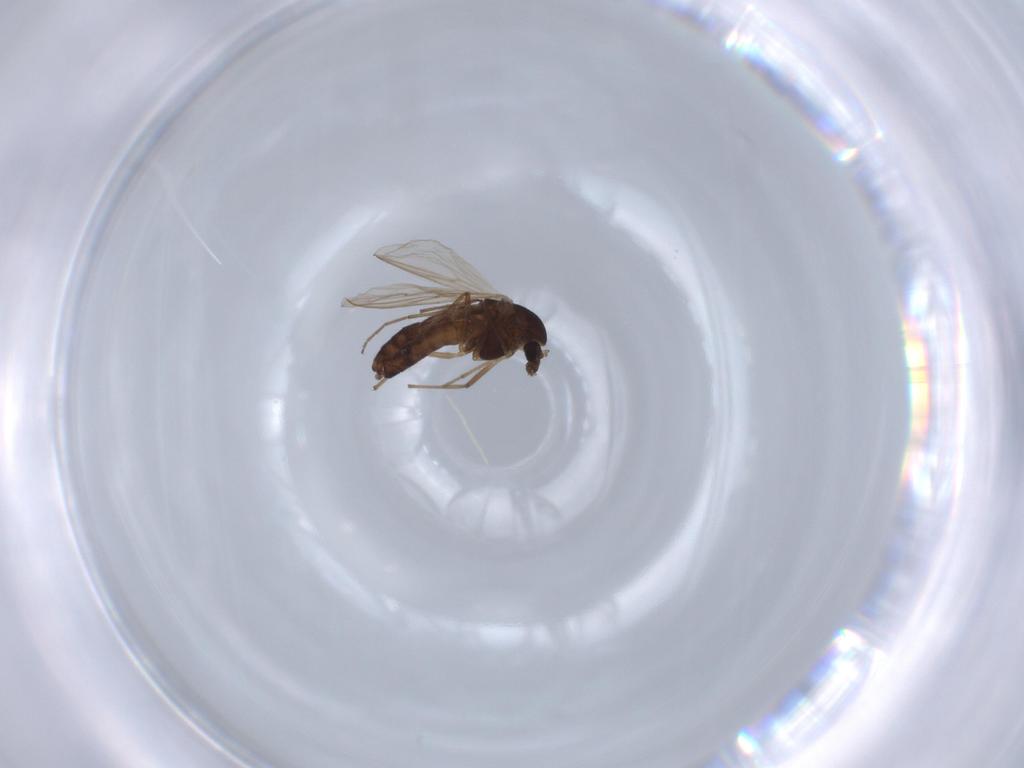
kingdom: Animalia
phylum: Arthropoda
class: Insecta
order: Diptera
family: Chironomidae
